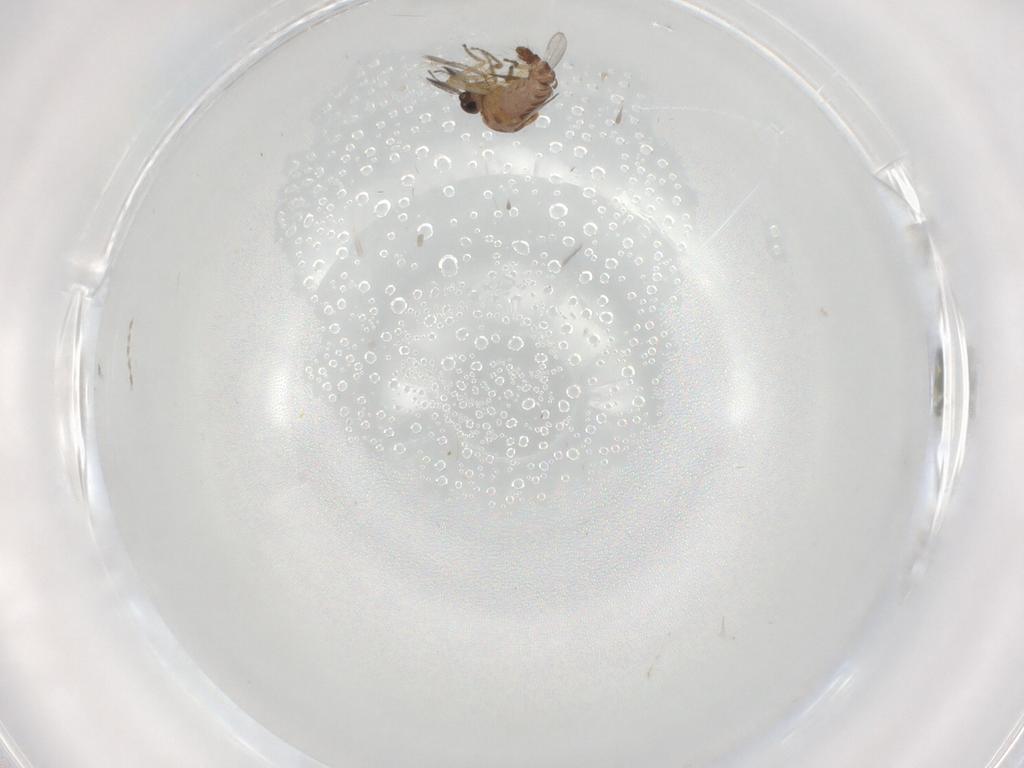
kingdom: Animalia
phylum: Arthropoda
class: Insecta
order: Diptera
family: Ceratopogonidae
